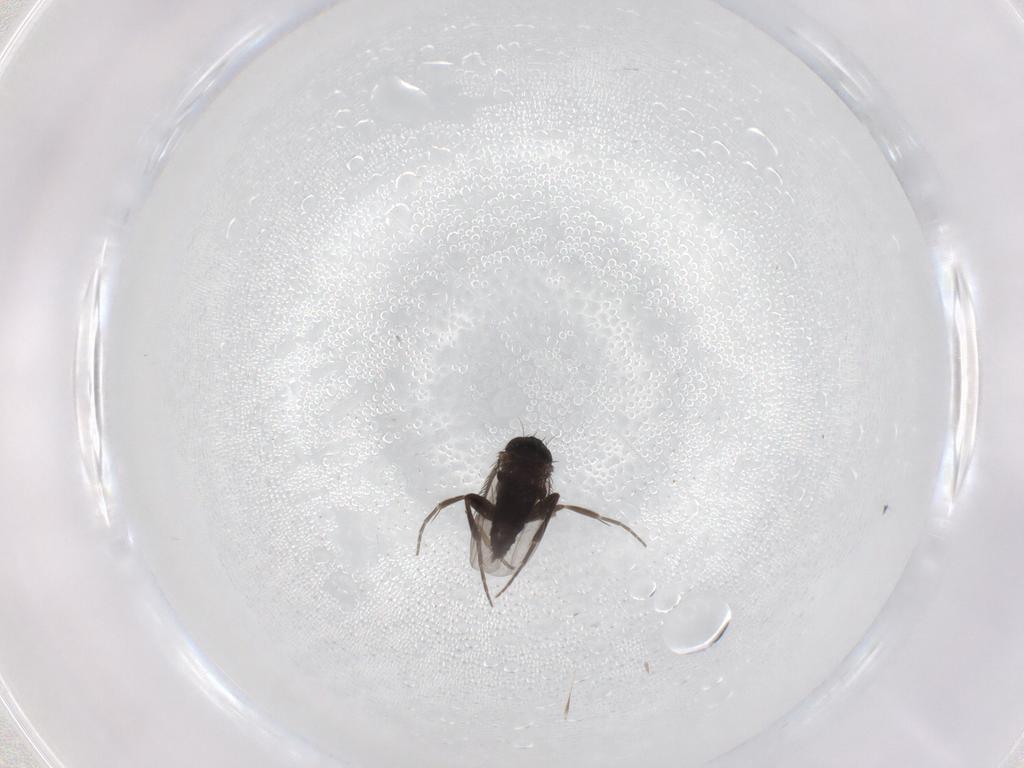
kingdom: Animalia
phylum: Arthropoda
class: Insecta
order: Diptera
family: Phoridae
